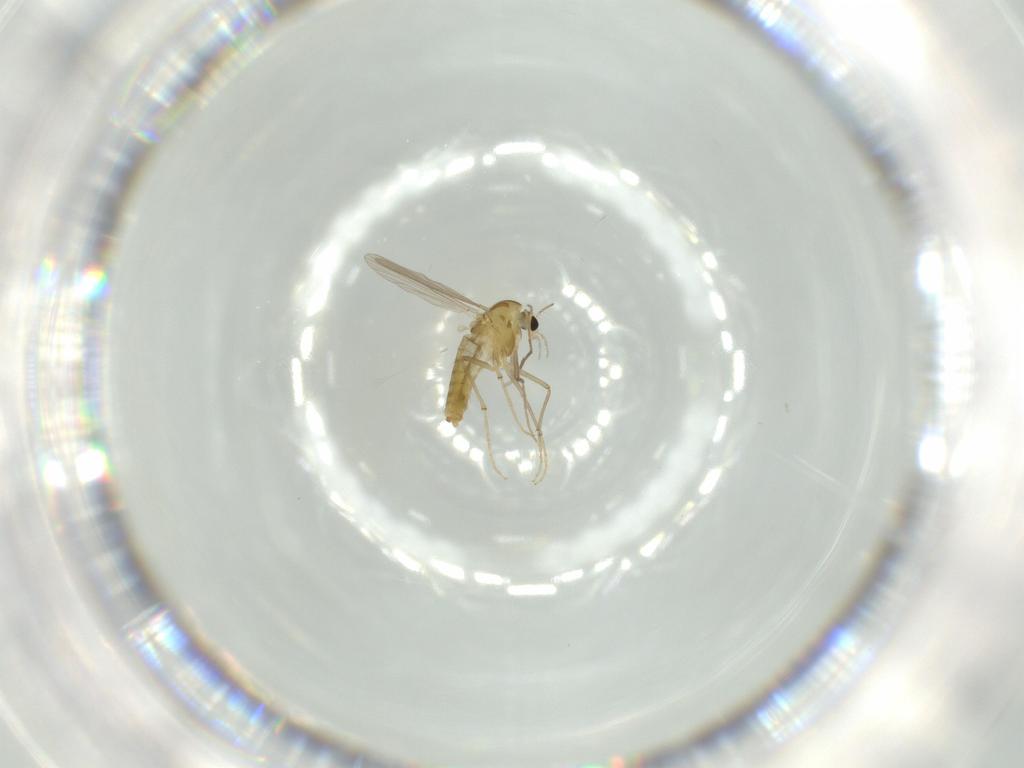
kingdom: Animalia
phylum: Arthropoda
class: Insecta
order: Diptera
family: Chironomidae
